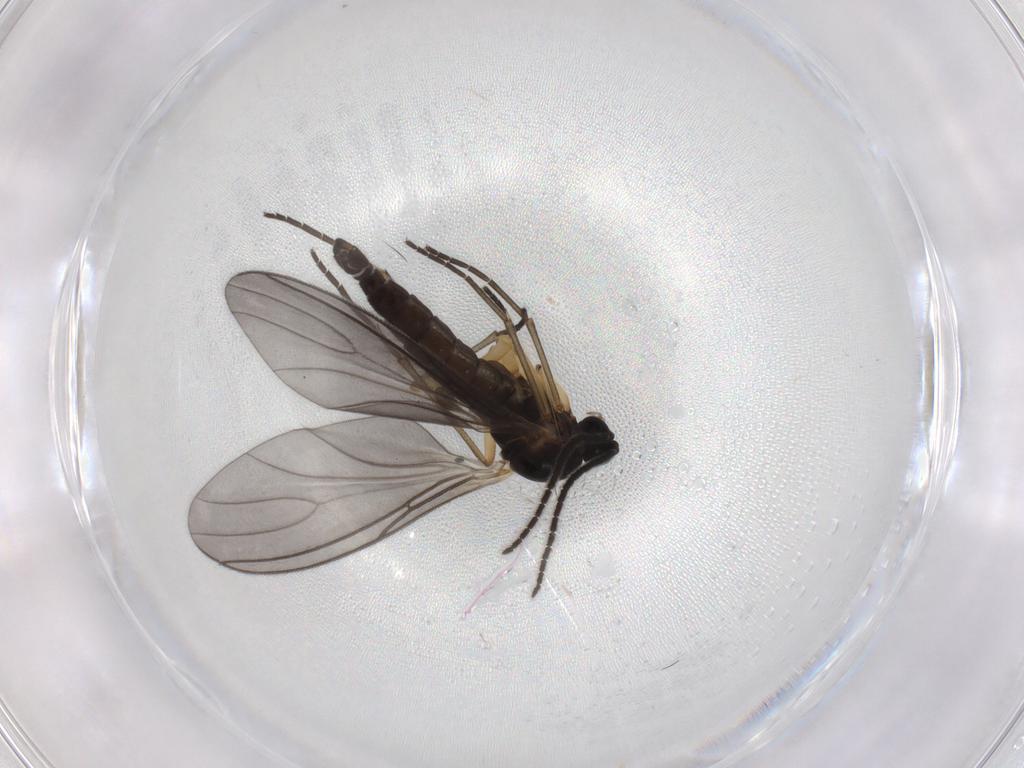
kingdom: Animalia
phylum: Arthropoda
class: Insecta
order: Diptera
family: Sciaridae
